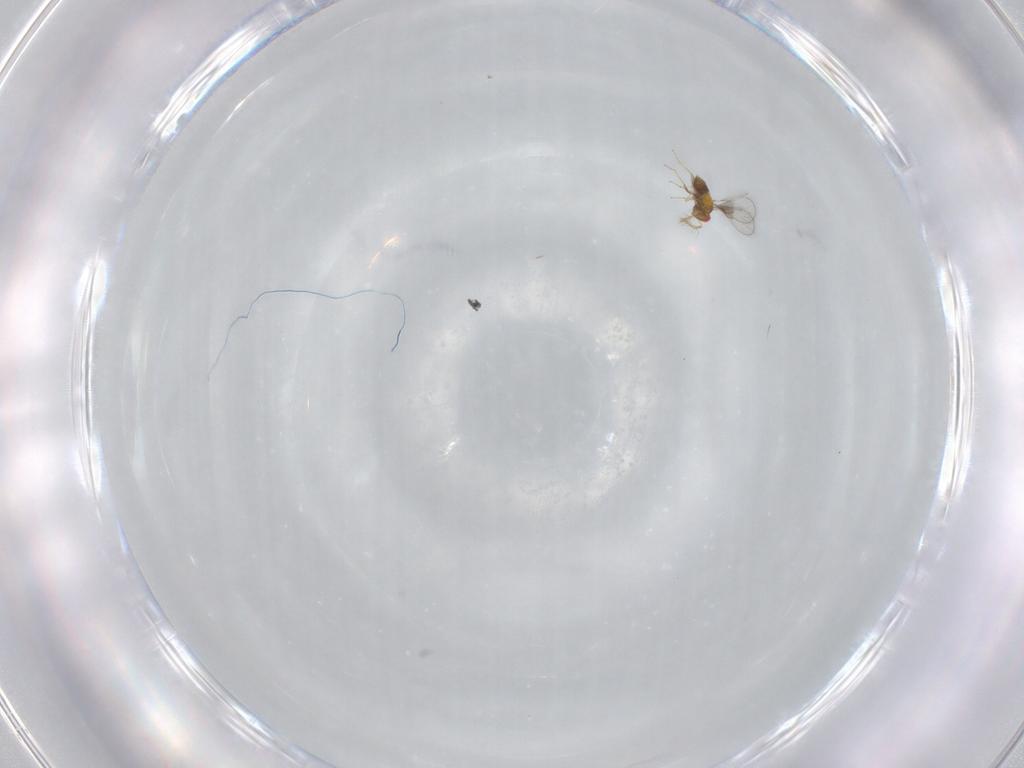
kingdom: Animalia
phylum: Arthropoda
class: Insecta
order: Hymenoptera
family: Trichogrammatidae
